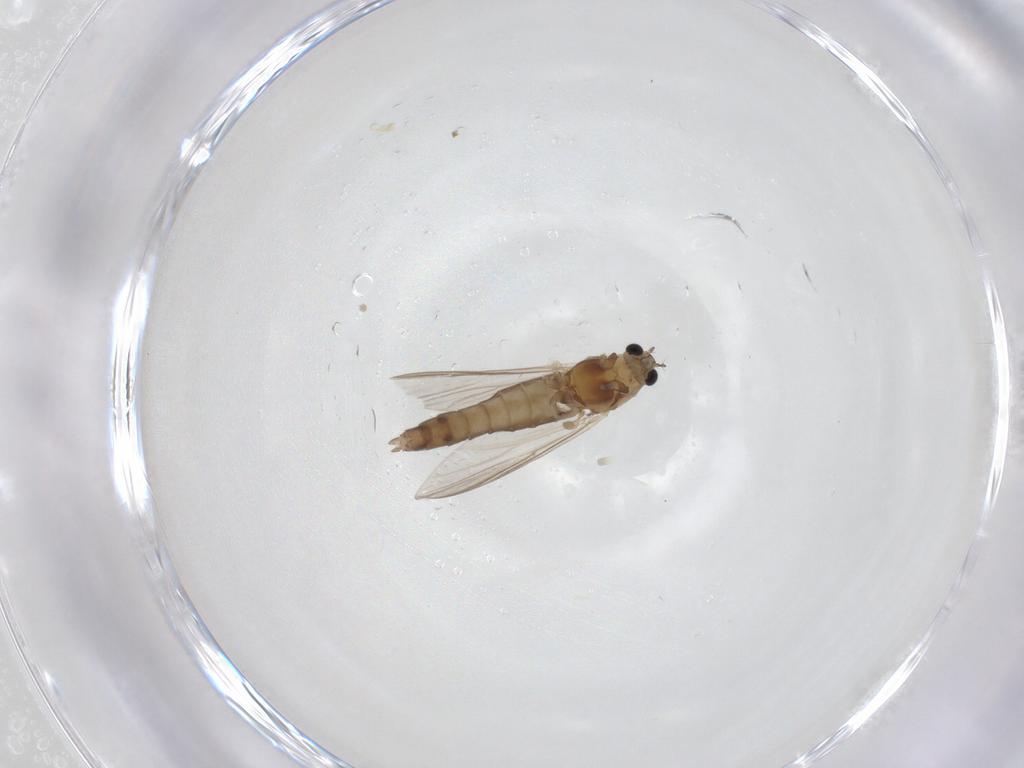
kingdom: Animalia
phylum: Arthropoda
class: Insecta
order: Diptera
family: Chironomidae
